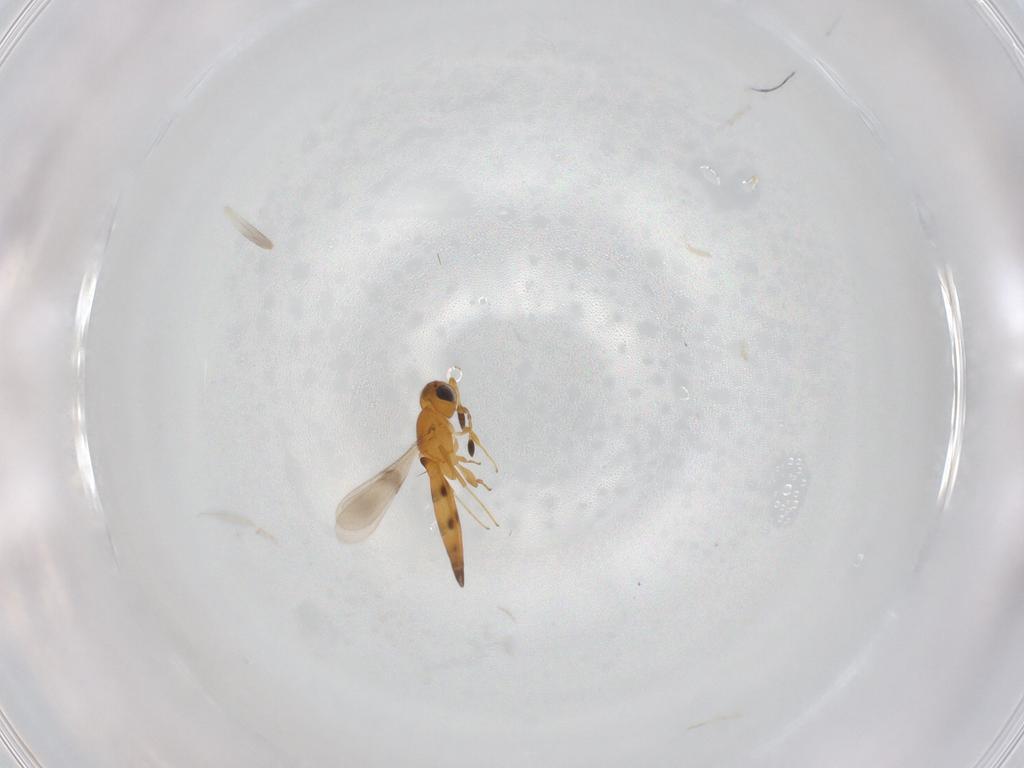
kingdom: Animalia
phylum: Arthropoda
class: Insecta
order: Hymenoptera
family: Scelionidae
